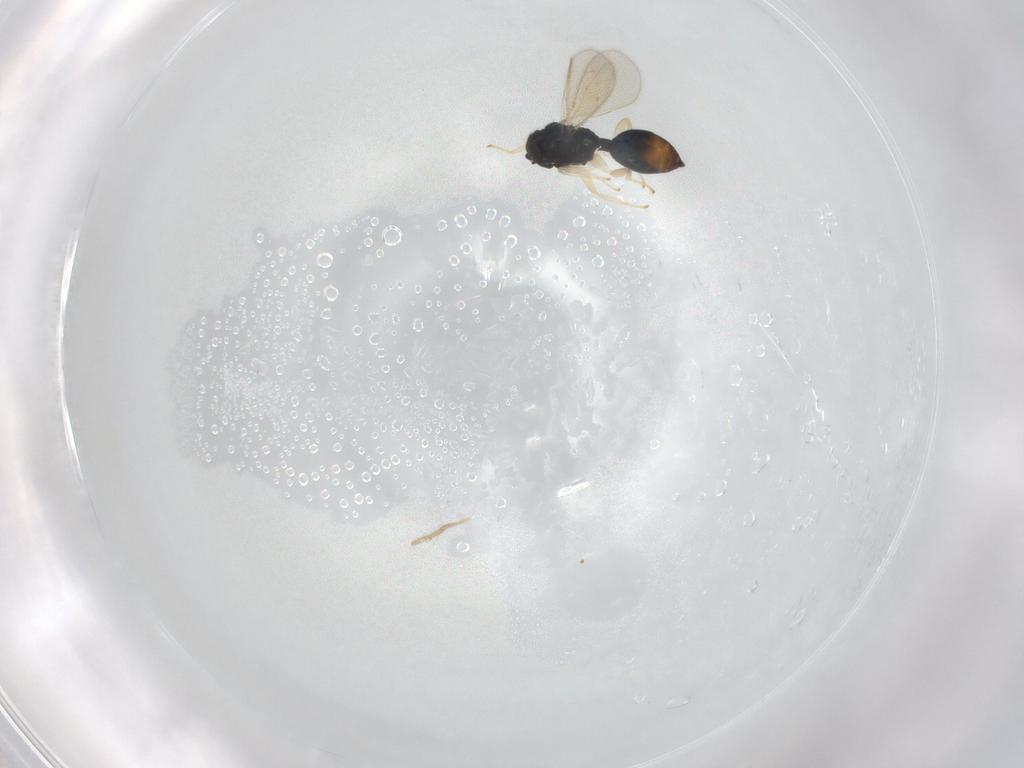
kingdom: Animalia
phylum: Arthropoda
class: Insecta
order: Hymenoptera
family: Eulophidae
